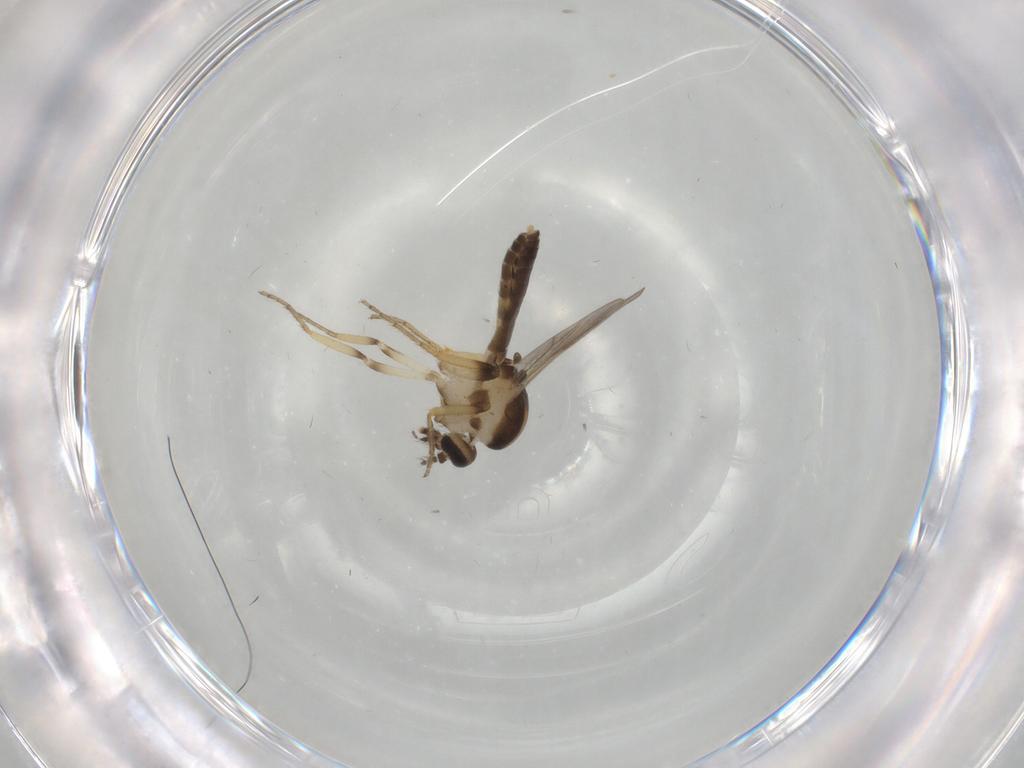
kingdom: Animalia
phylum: Arthropoda
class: Insecta
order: Diptera
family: Ceratopogonidae
